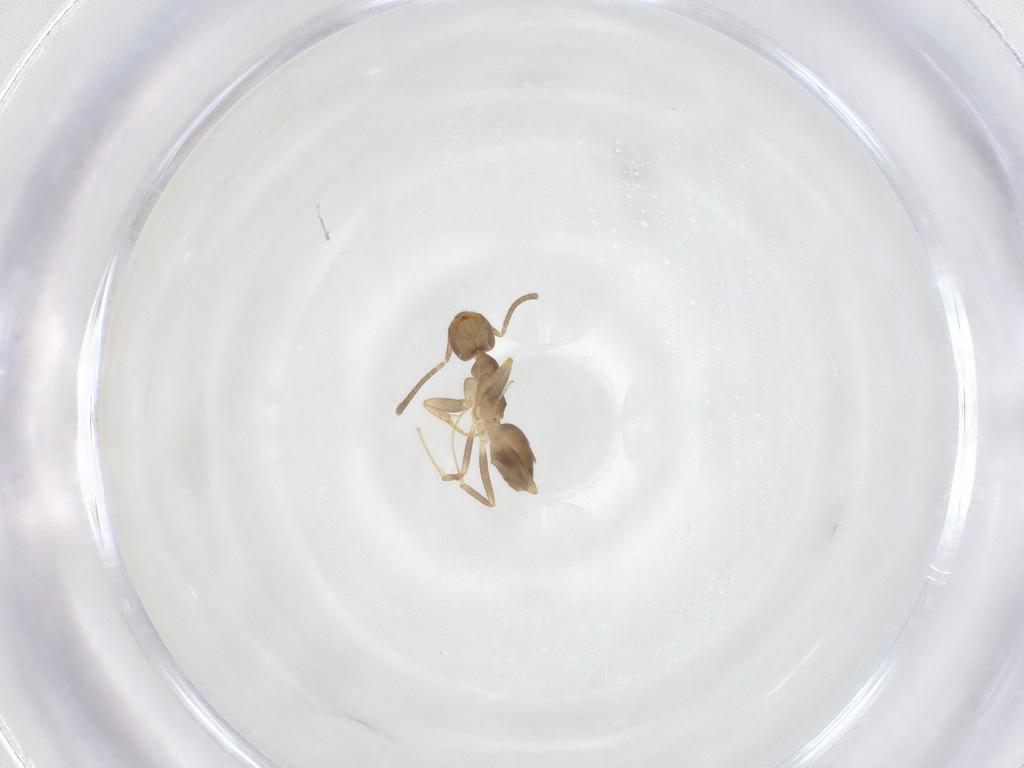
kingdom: Animalia
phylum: Arthropoda
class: Insecta
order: Hymenoptera
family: Formicidae
